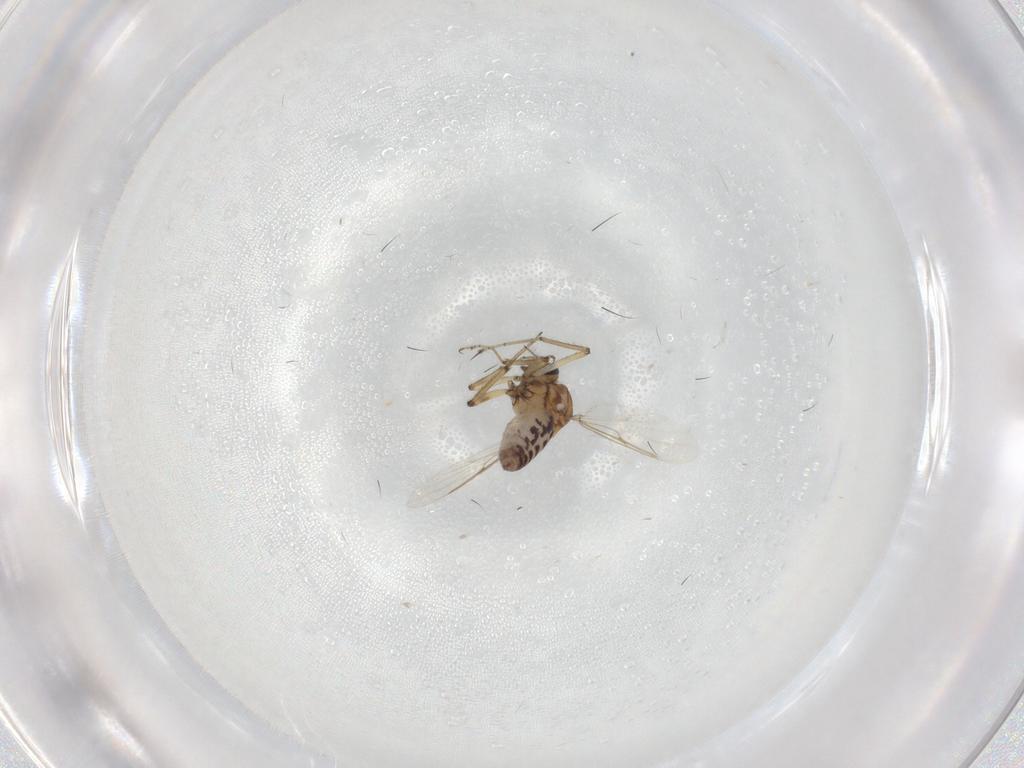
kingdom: Animalia
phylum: Arthropoda
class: Insecta
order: Diptera
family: Ceratopogonidae
